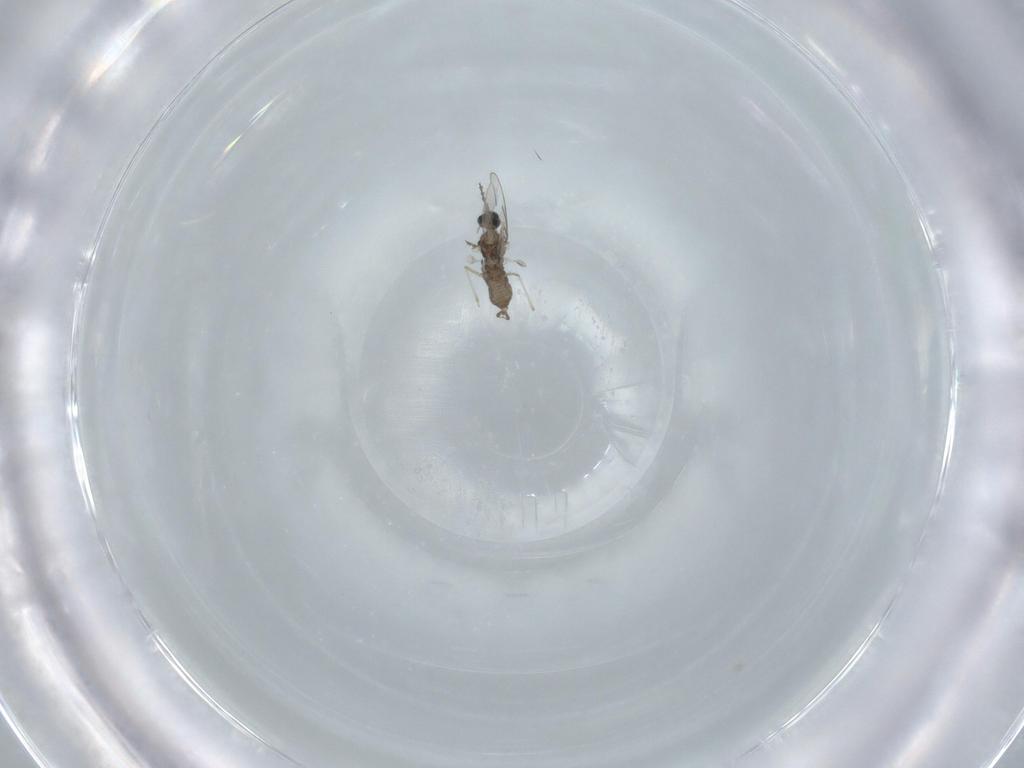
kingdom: Animalia
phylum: Arthropoda
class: Insecta
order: Diptera
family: Cecidomyiidae
